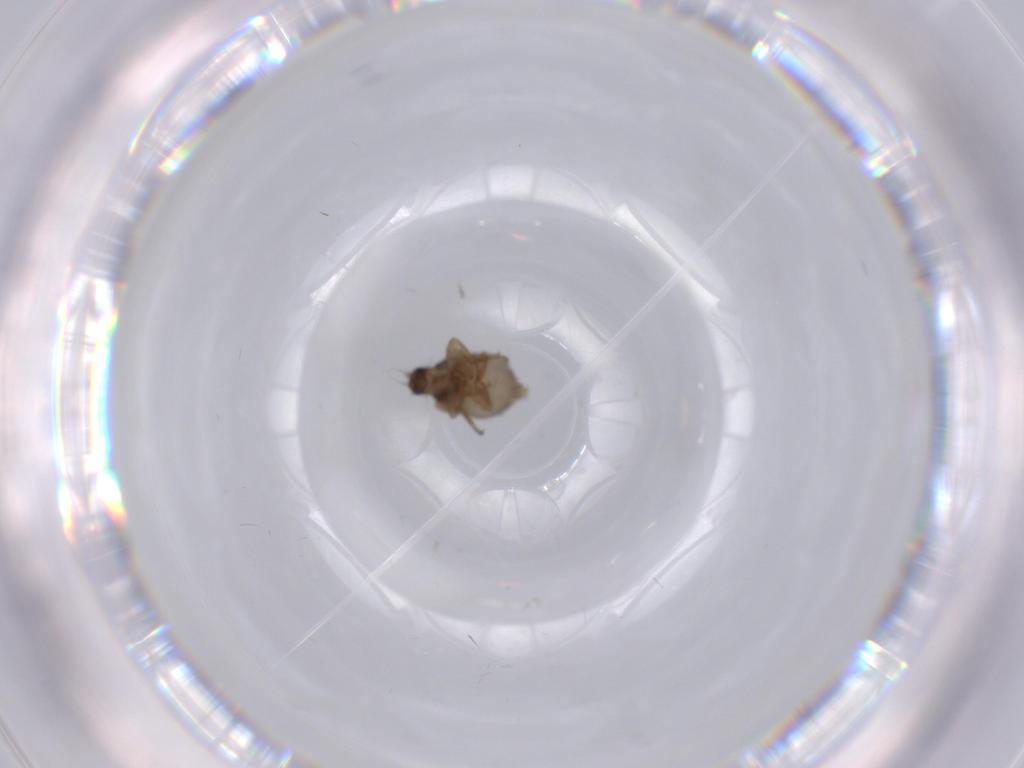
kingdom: Animalia
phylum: Arthropoda
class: Insecta
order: Diptera
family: Phoridae
